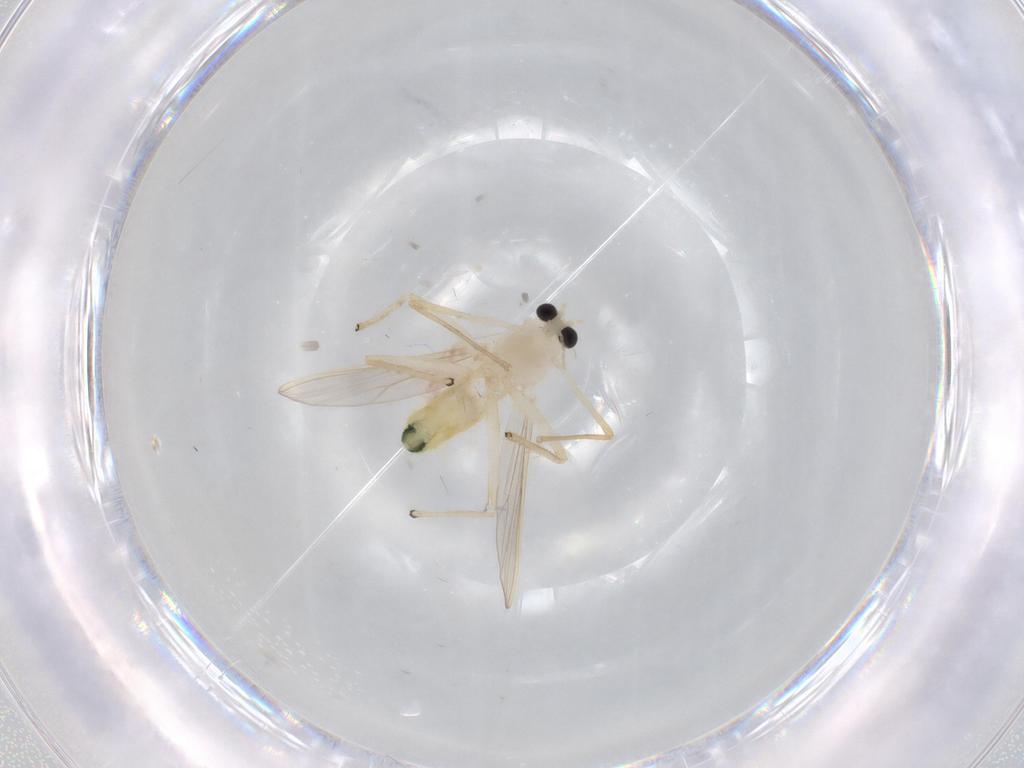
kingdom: Animalia
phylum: Arthropoda
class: Insecta
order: Diptera
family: Chironomidae
